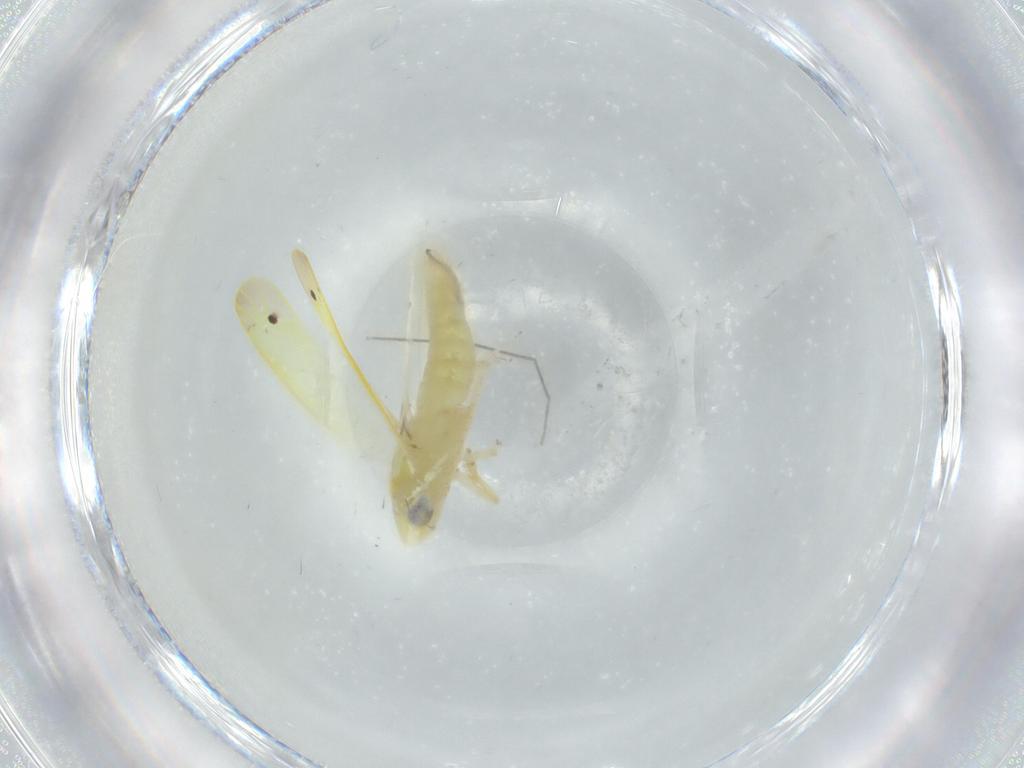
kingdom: Animalia
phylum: Arthropoda
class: Insecta
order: Hemiptera
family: Cicadellidae
